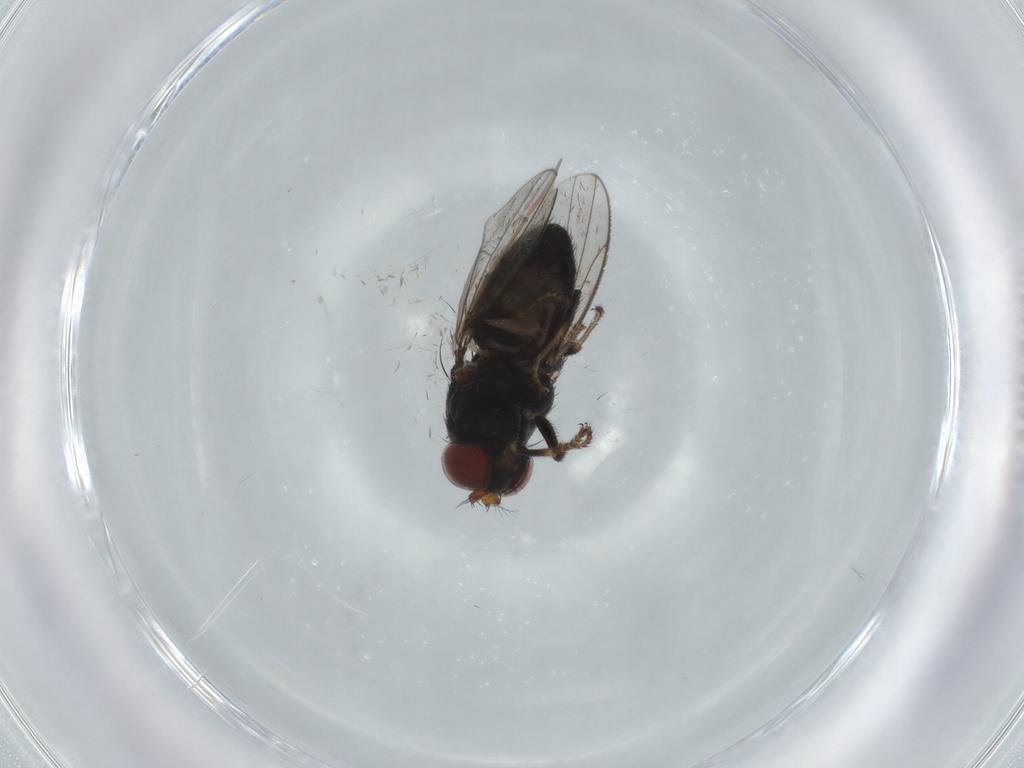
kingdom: Animalia
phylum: Arthropoda
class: Insecta
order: Diptera
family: Ephydridae
